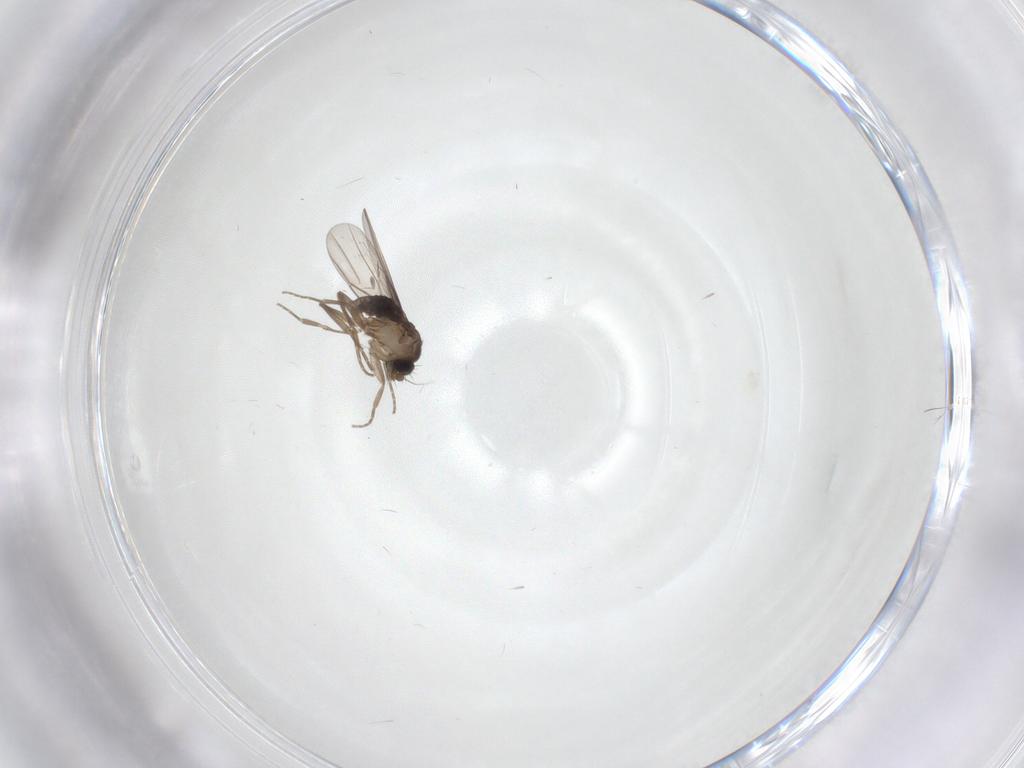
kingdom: Animalia
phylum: Arthropoda
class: Insecta
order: Diptera
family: Phoridae
